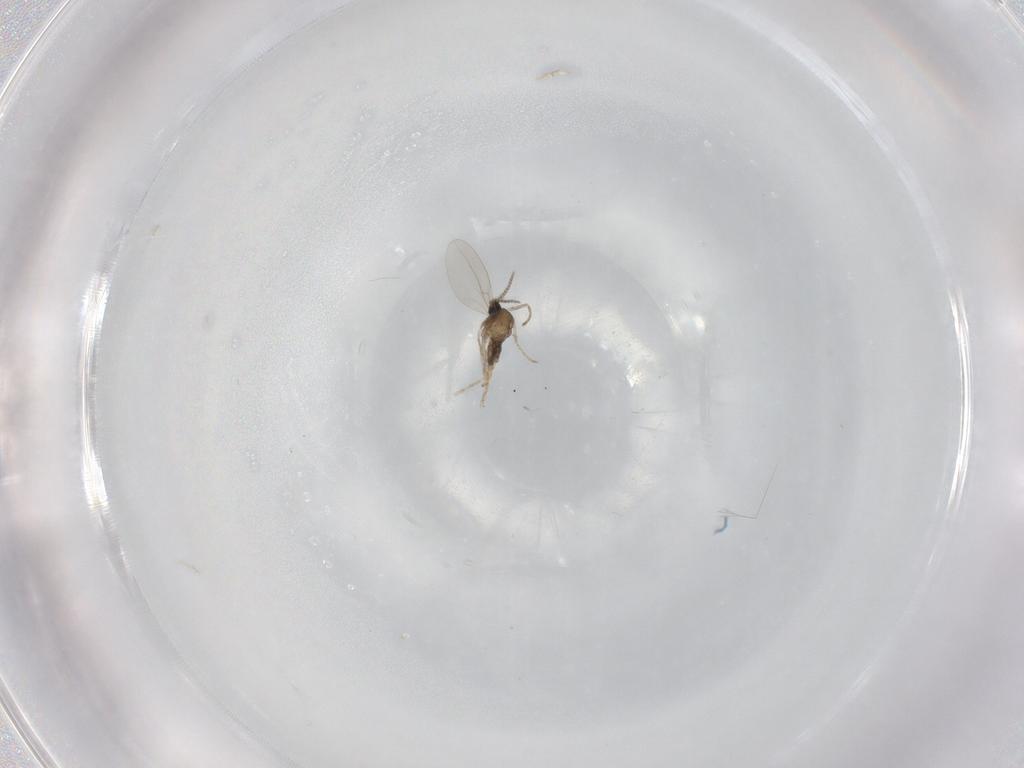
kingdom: Animalia
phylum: Arthropoda
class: Insecta
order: Diptera
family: Cecidomyiidae
